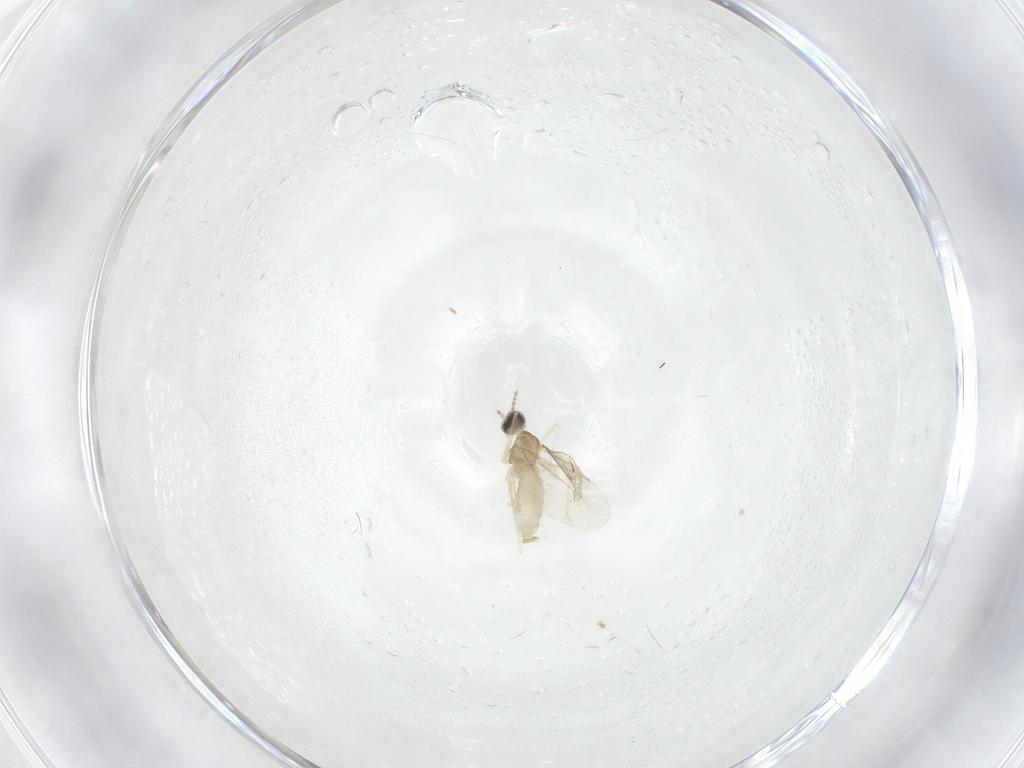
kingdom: Animalia
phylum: Arthropoda
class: Insecta
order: Diptera
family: Cecidomyiidae
